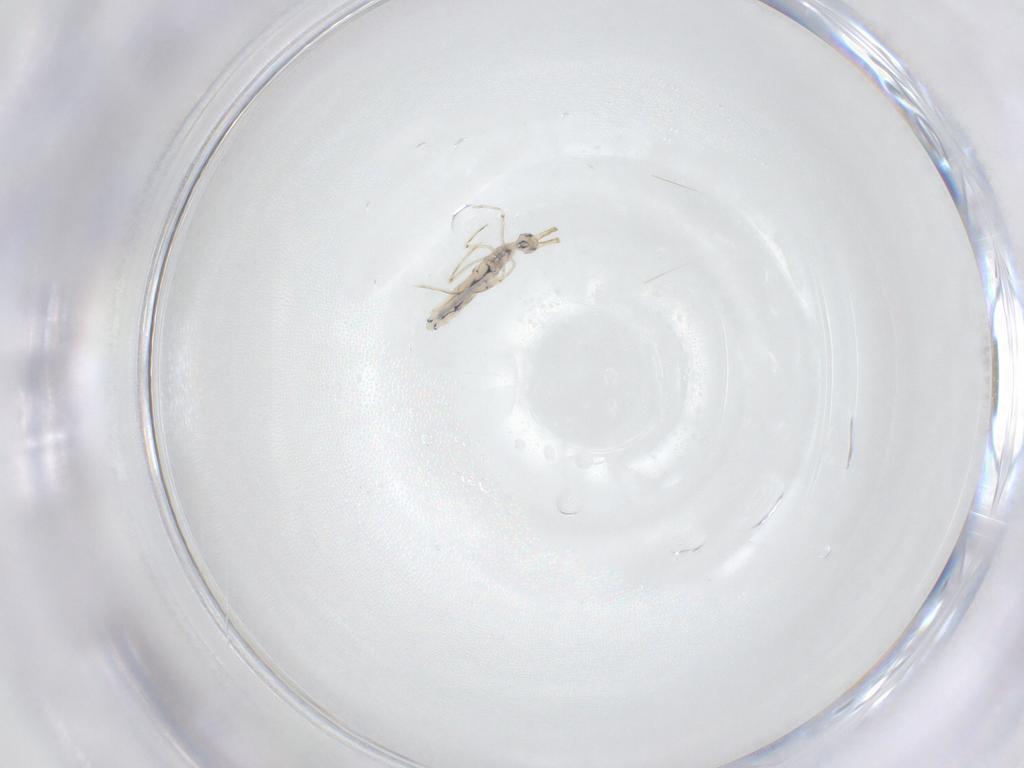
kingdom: Animalia
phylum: Arthropoda
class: Collembola
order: Entomobryomorpha
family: Entomobryidae
